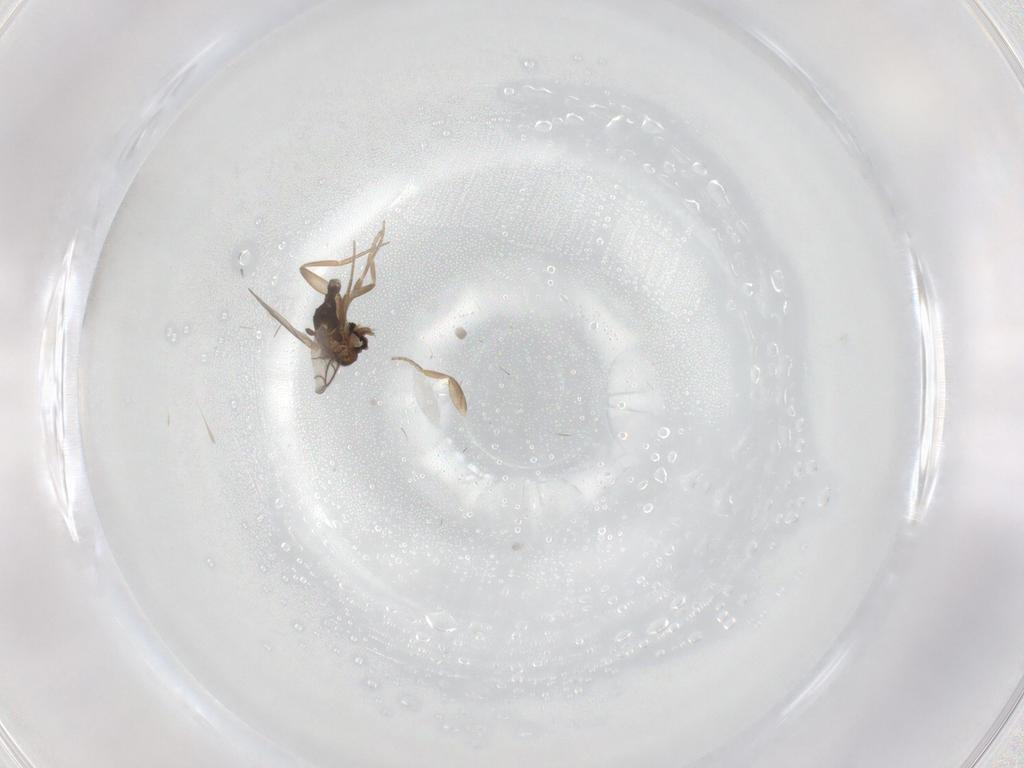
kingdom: Animalia
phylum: Arthropoda
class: Insecta
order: Diptera
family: Phoridae
